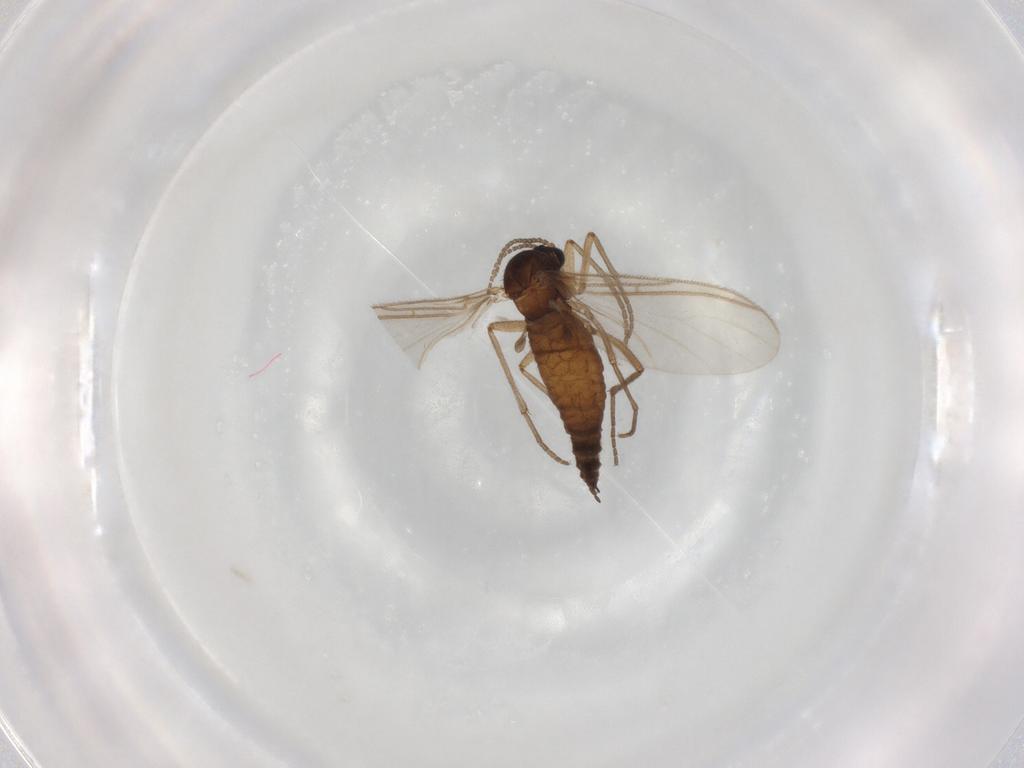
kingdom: Animalia
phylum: Arthropoda
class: Insecta
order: Diptera
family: Sciaridae
